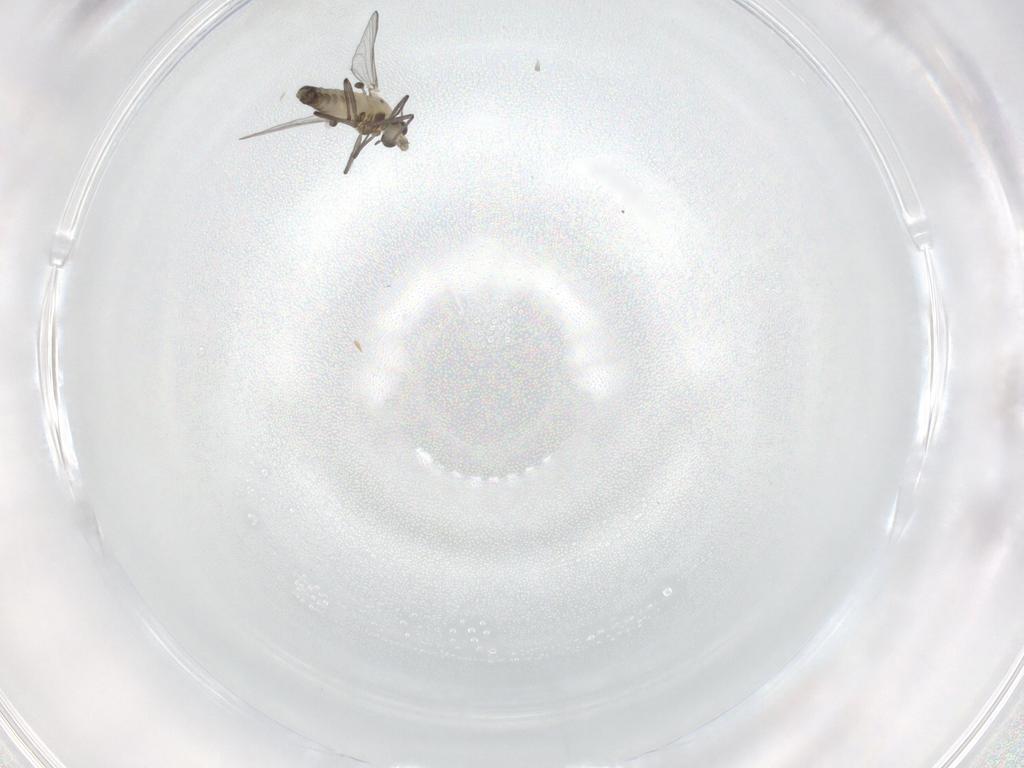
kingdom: Animalia
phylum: Arthropoda
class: Insecta
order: Diptera
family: Chironomidae
